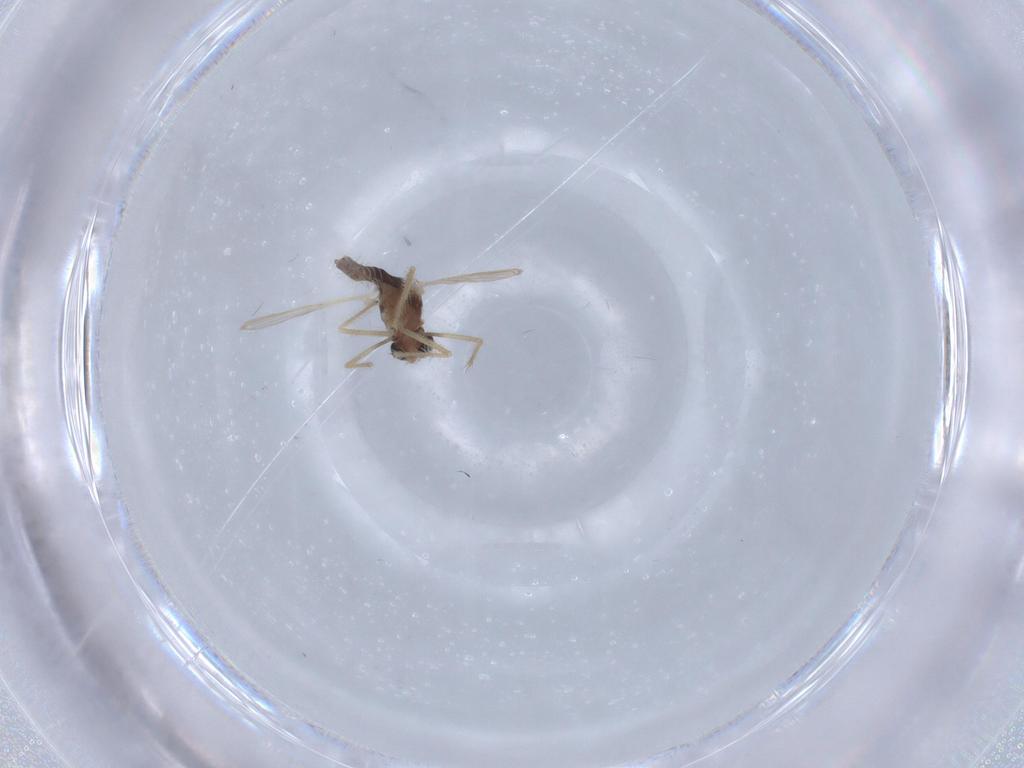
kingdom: Animalia
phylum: Arthropoda
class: Insecta
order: Diptera
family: Chironomidae
